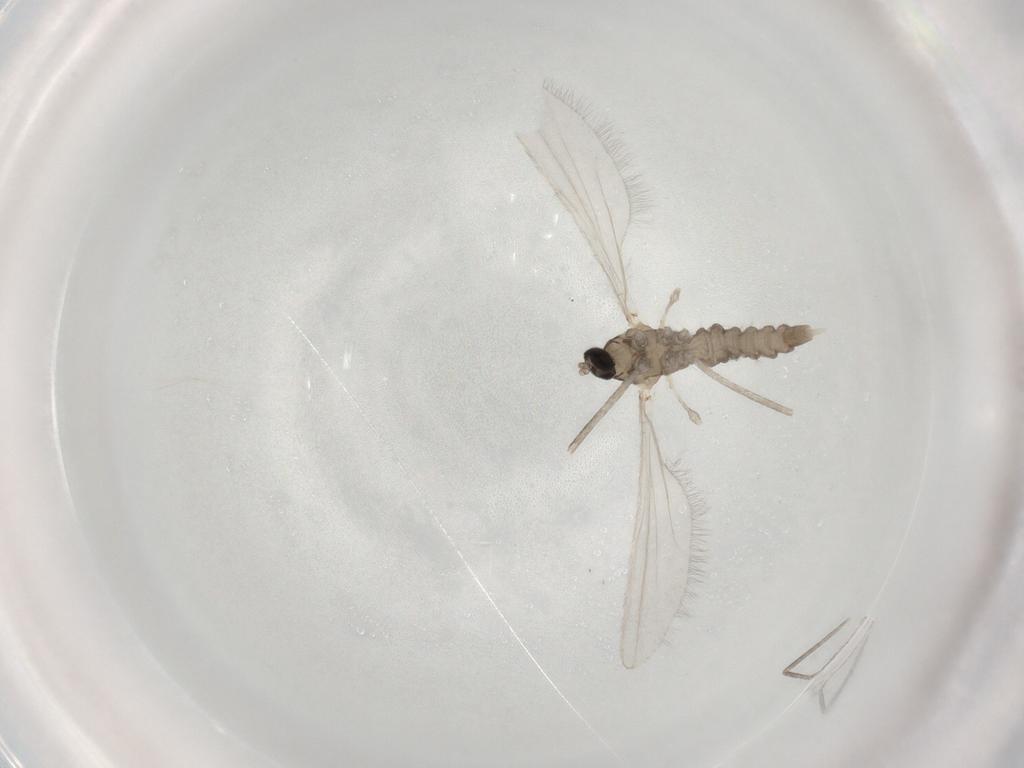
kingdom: Animalia
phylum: Arthropoda
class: Insecta
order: Diptera
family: Cecidomyiidae
